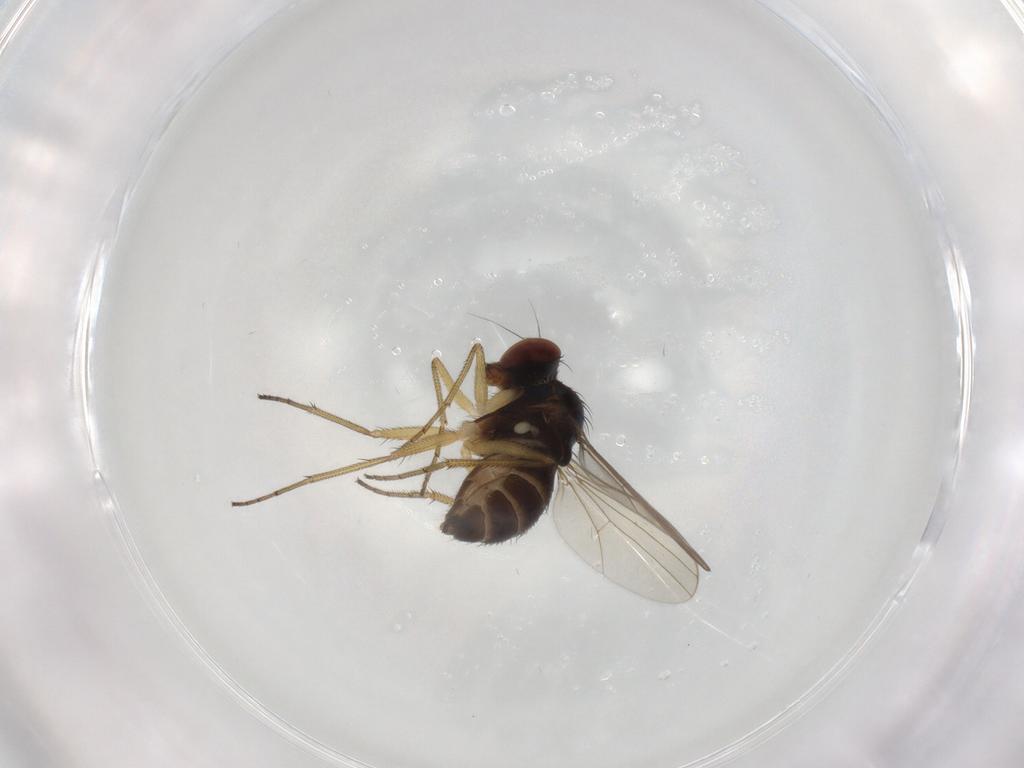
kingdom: Animalia
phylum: Arthropoda
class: Insecta
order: Diptera
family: Dolichopodidae
